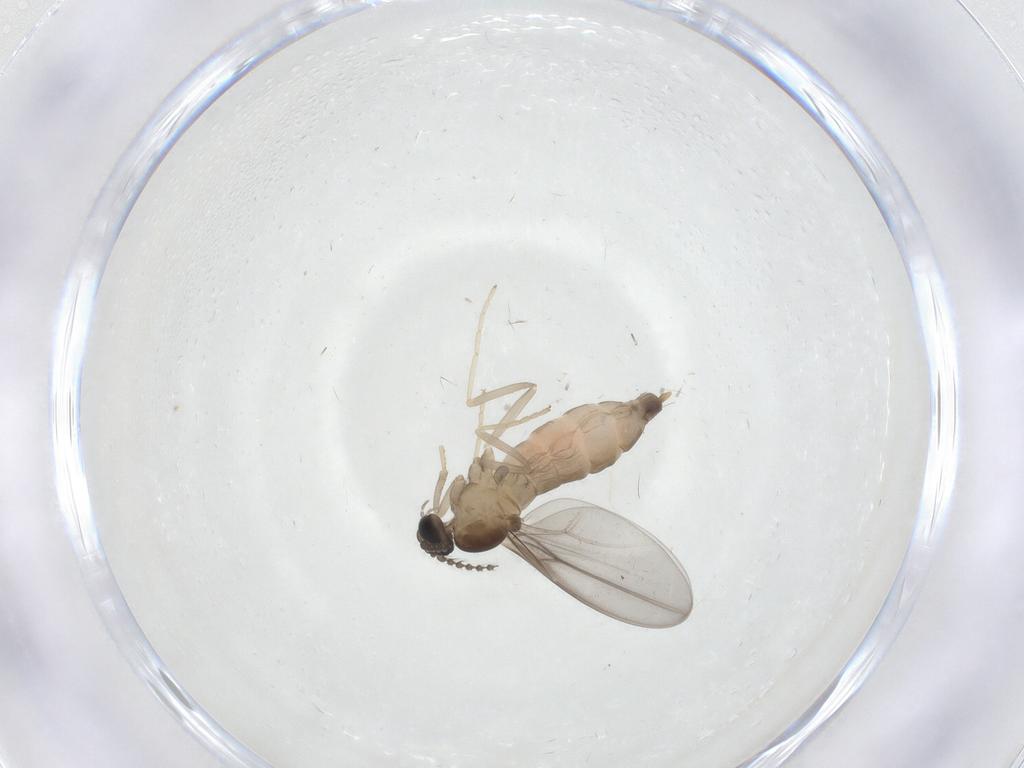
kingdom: Animalia
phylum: Arthropoda
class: Insecta
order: Diptera
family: Cecidomyiidae
